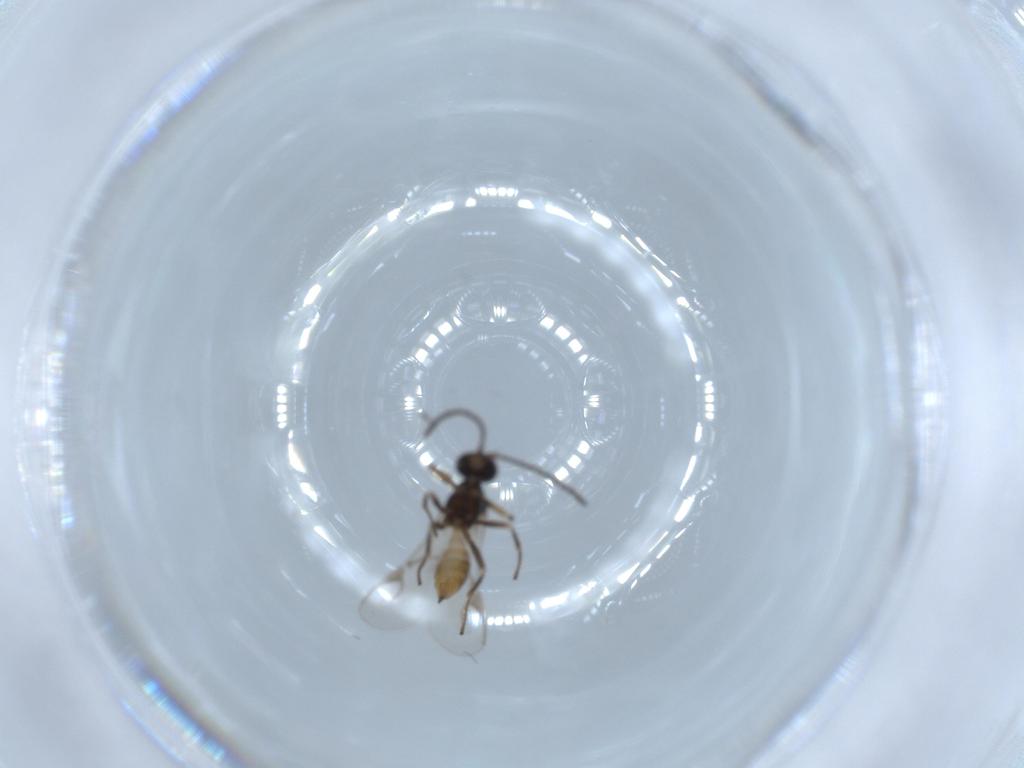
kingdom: Animalia
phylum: Arthropoda
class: Insecta
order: Hymenoptera
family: Braconidae
